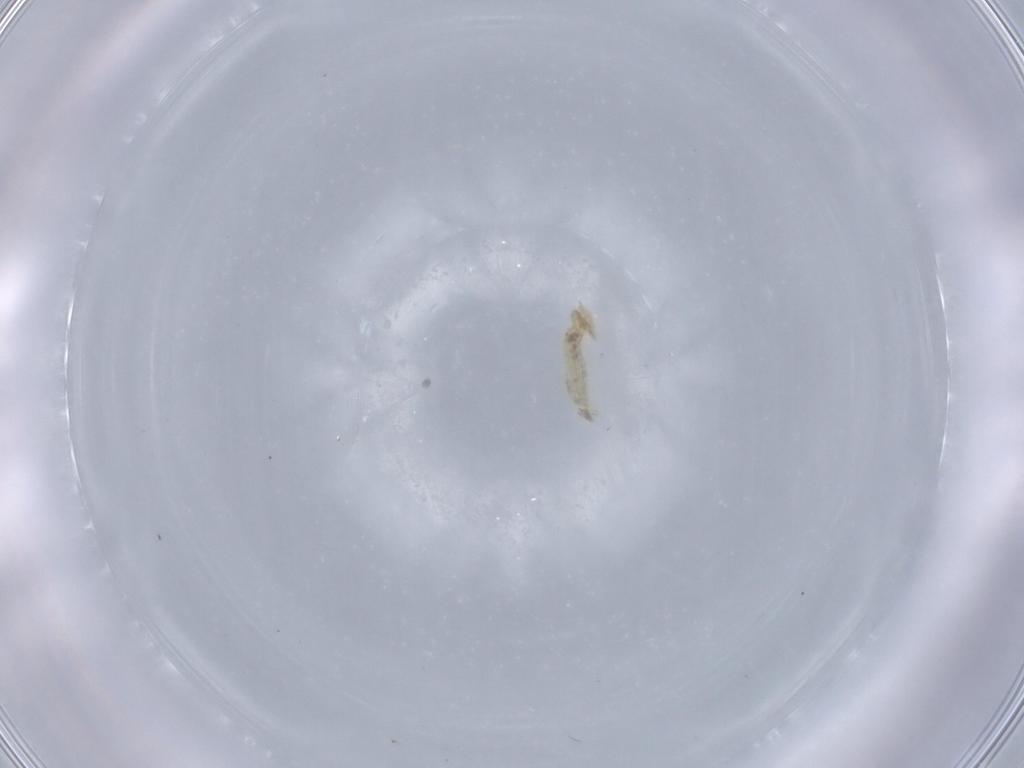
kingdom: Animalia
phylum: Arthropoda
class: Insecta
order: Diptera
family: Cecidomyiidae
